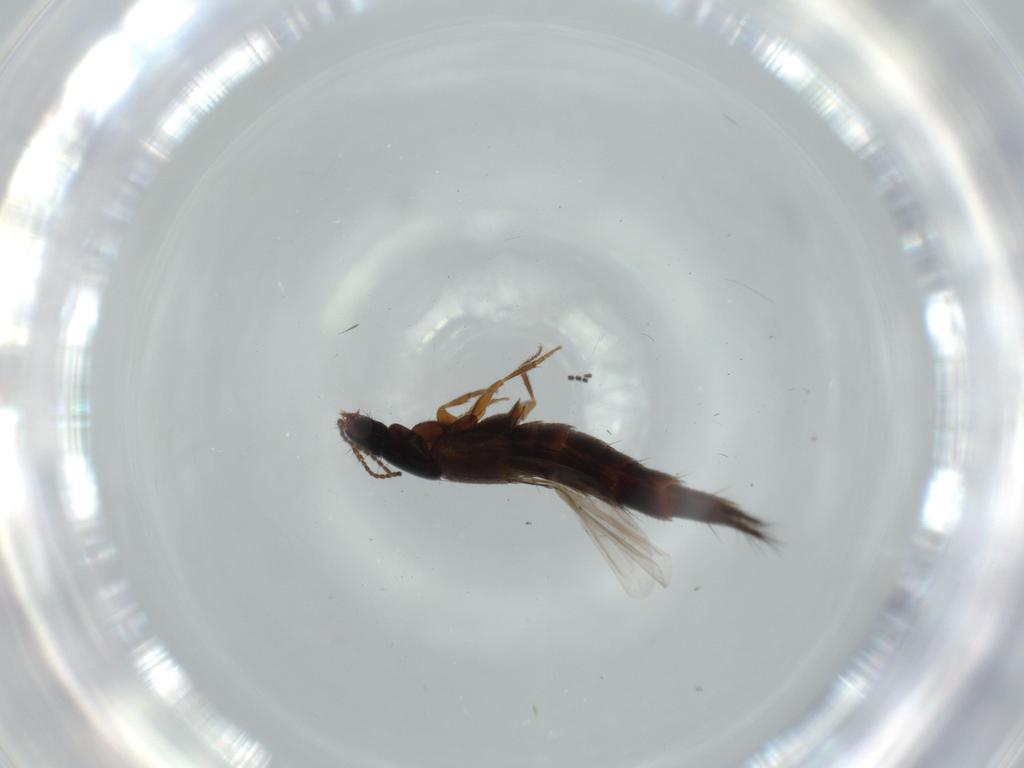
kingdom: Animalia
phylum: Arthropoda
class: Insecta
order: Coleoptera
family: Staphylinidae
